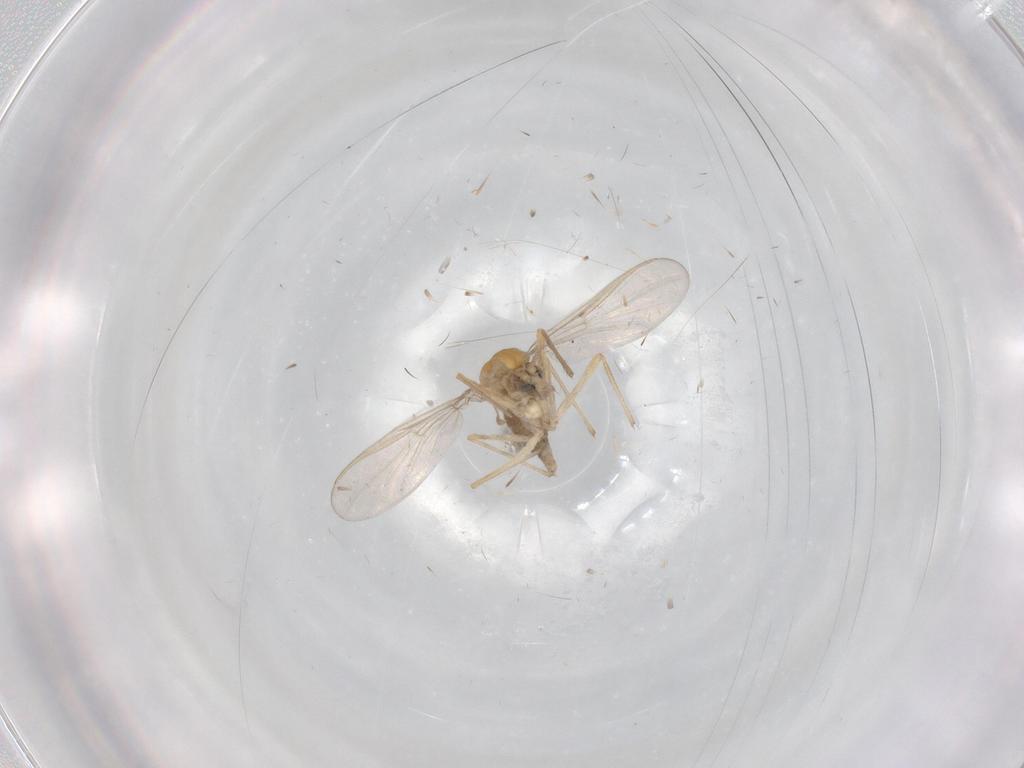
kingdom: Animalia
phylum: Arthropoda
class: Insecta
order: Diptera
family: Chironomidae
